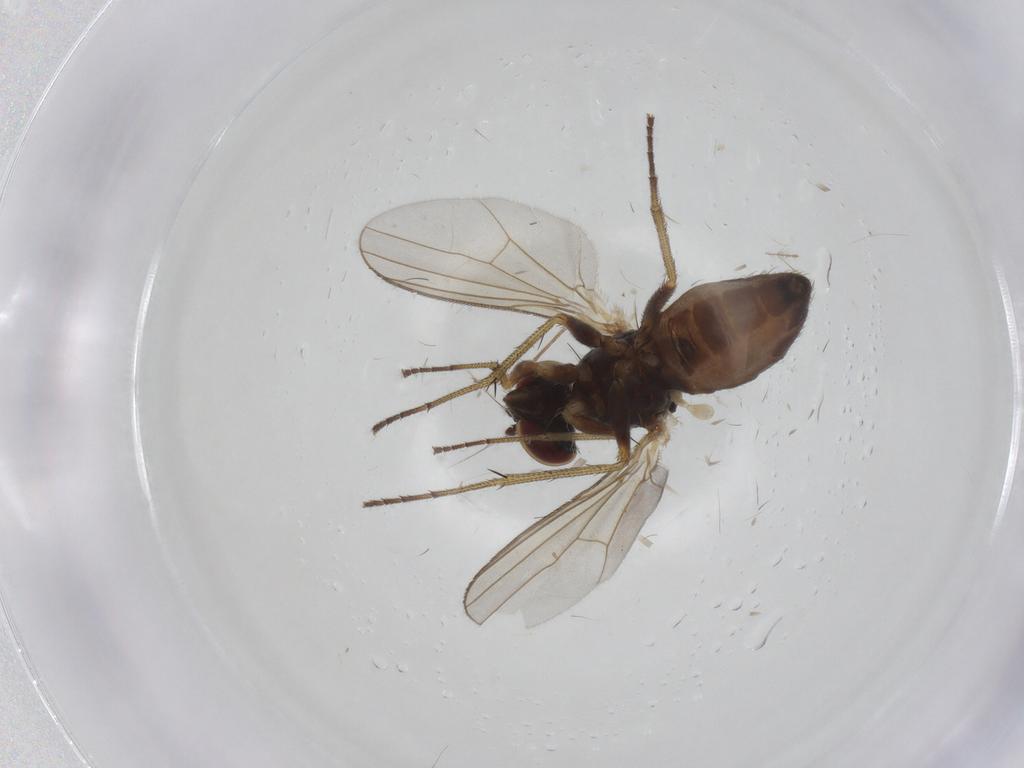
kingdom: Animalia
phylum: Arthropoda
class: Insecta
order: Diptera
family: Dolichopodidae
